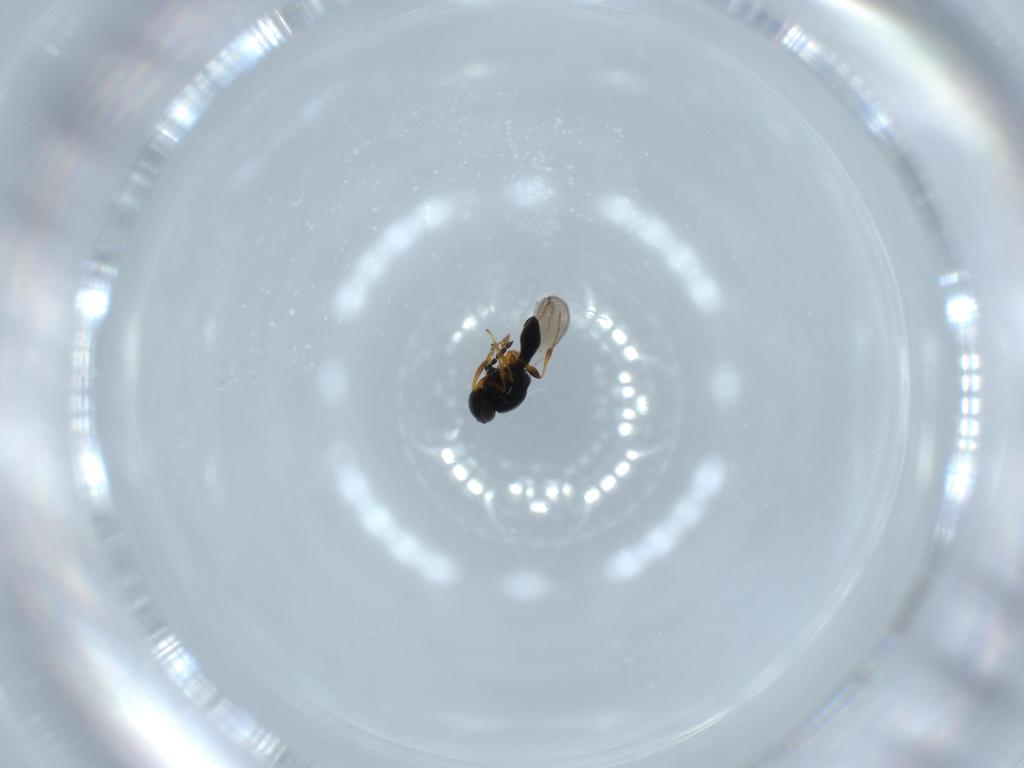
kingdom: Animalia
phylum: Arthropoda
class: Insecta
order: Hymenoptera
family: Platygastridae
